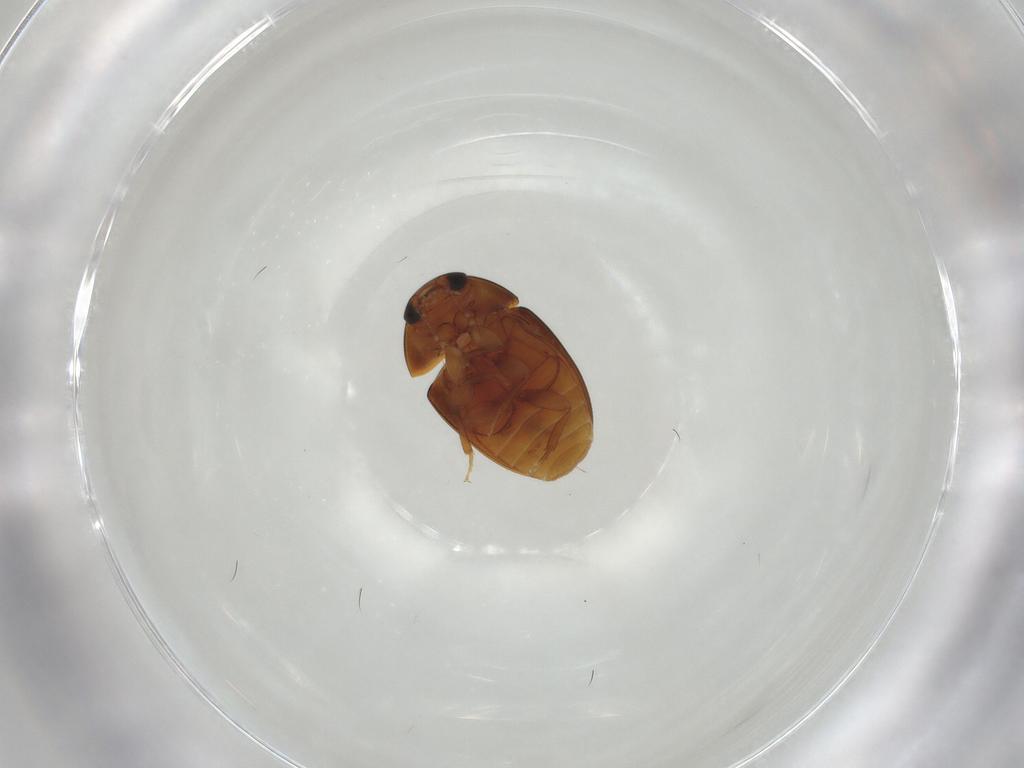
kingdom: Animalia
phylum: Arthropoda
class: Insecta
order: Coleoptera
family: Phalacridae
